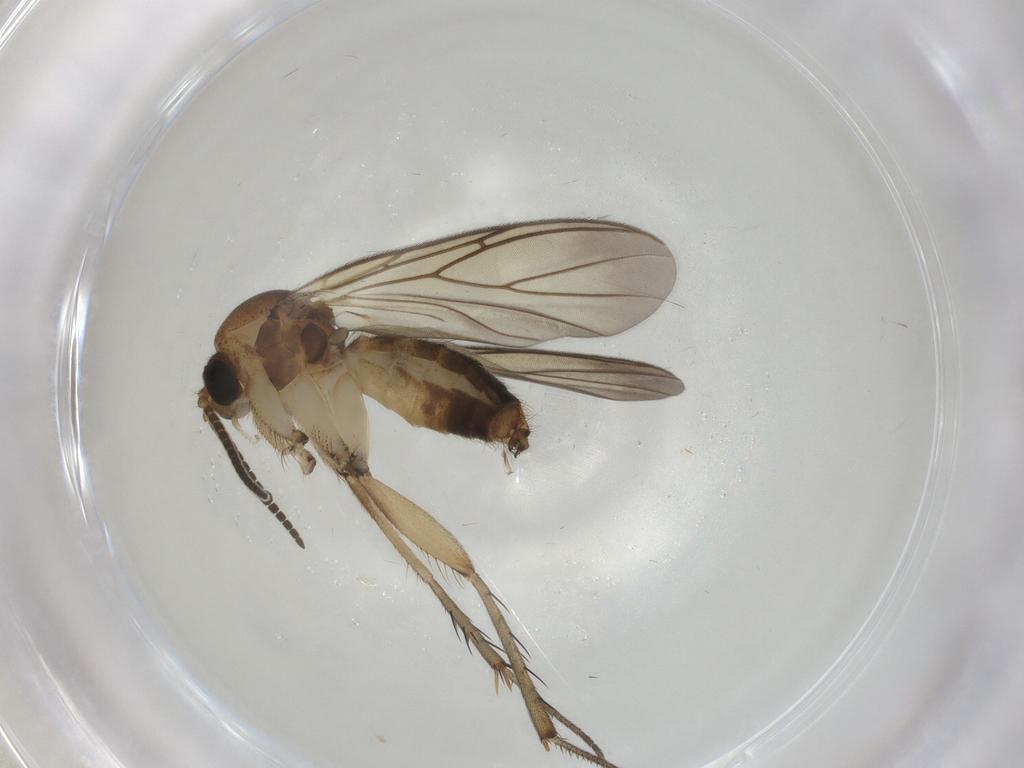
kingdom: Animalia
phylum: Arthropoda
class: Insecta
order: Diptera
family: Mycetophilidae
